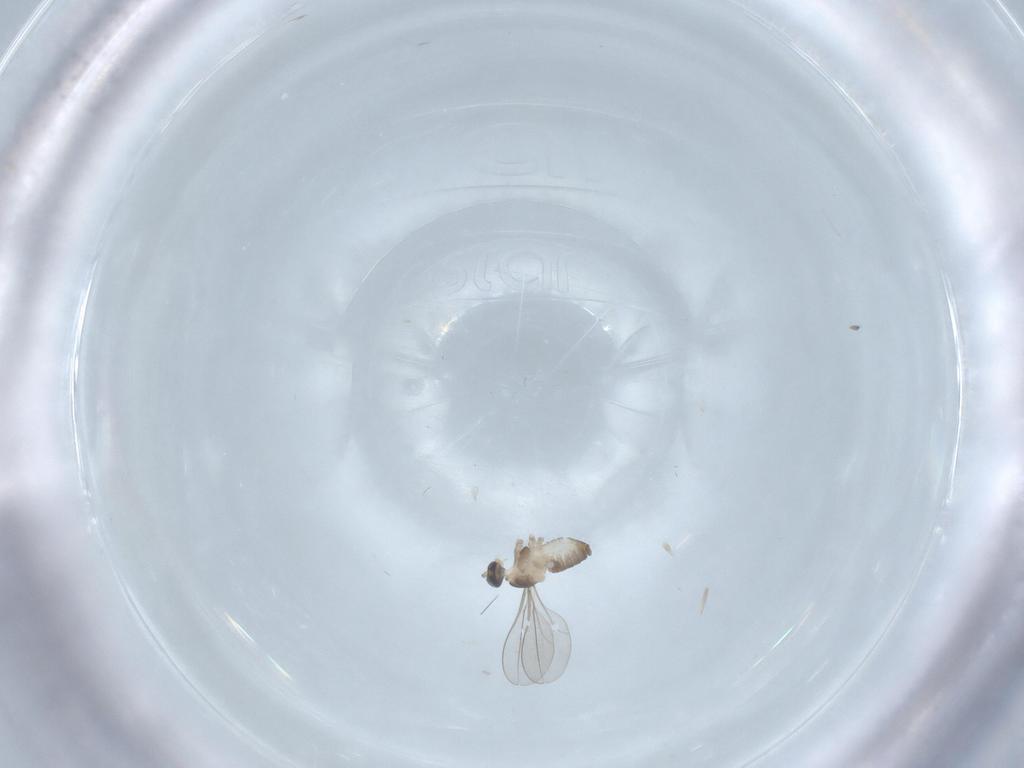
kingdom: Animalia
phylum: Arthropoda
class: Insecta
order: Diptera
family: Cecidomyiidae
